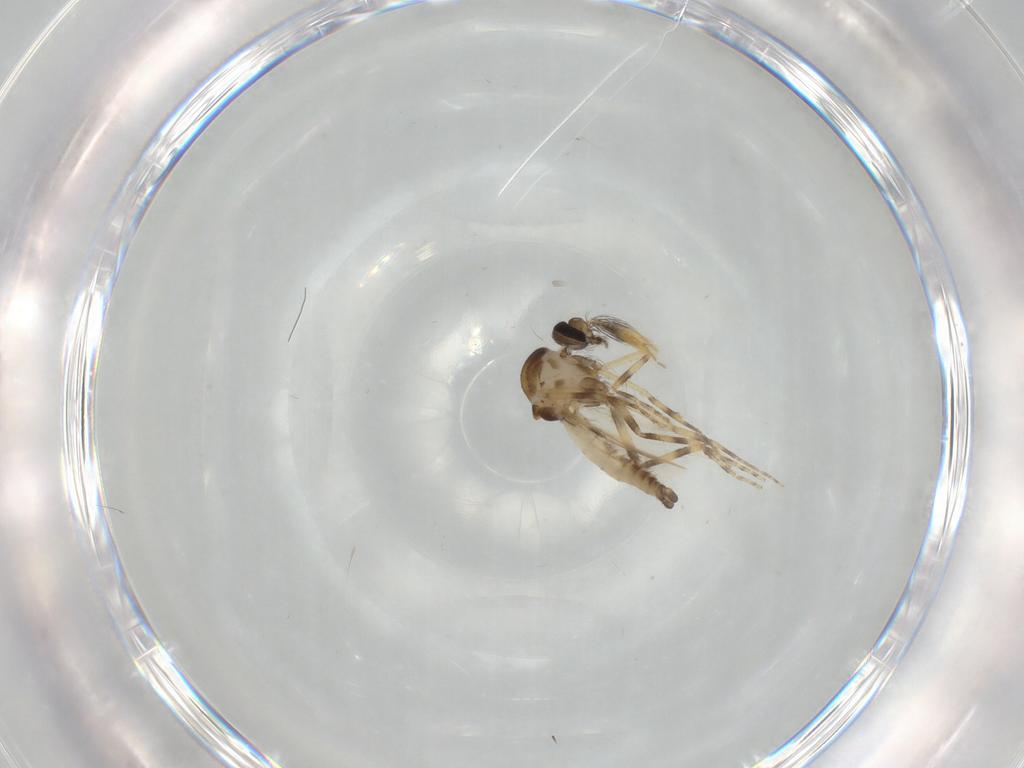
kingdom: Animalia
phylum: Arthropoda
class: Insecta
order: Diptera
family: Ceratopogonidae
